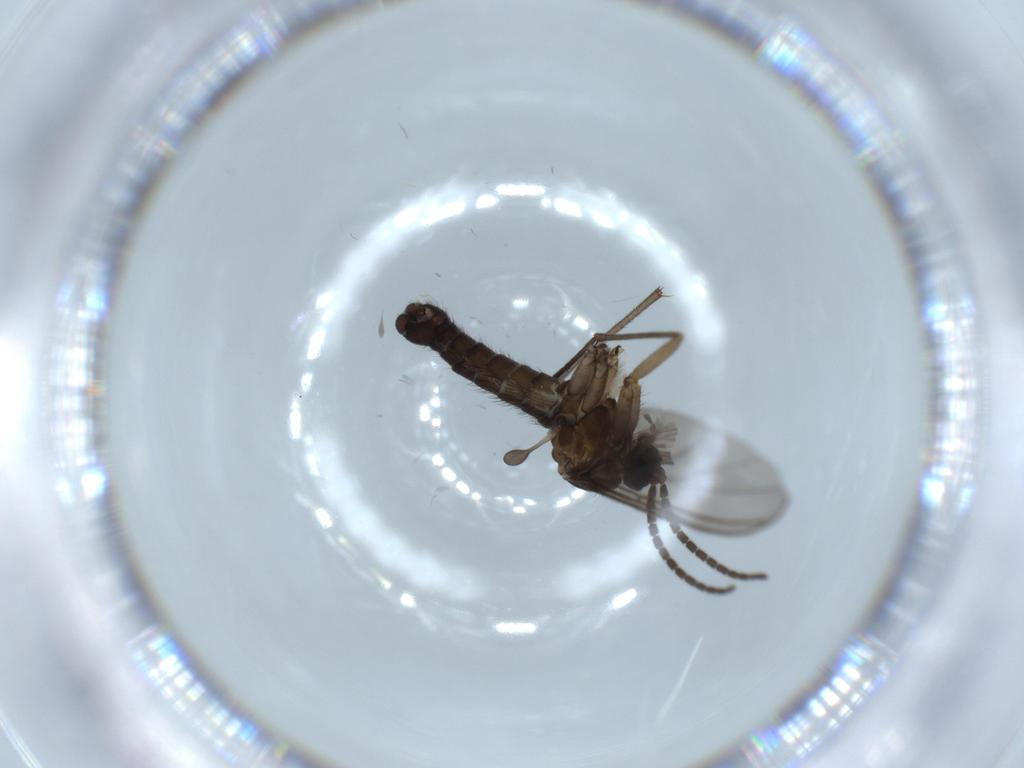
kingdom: Animalia
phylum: Arthropoda
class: Insecta
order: Diptera
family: Sciaridae
